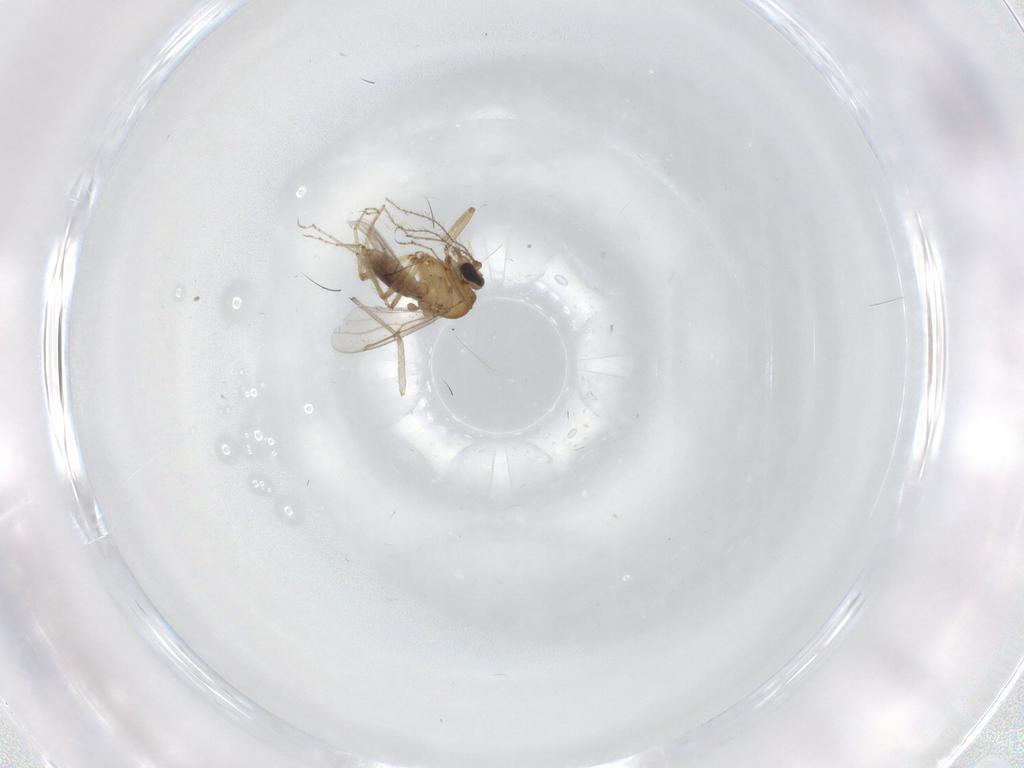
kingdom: Animalia
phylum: Arthropoda
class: Insecta
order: Diptera
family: Ceratopogonidae
